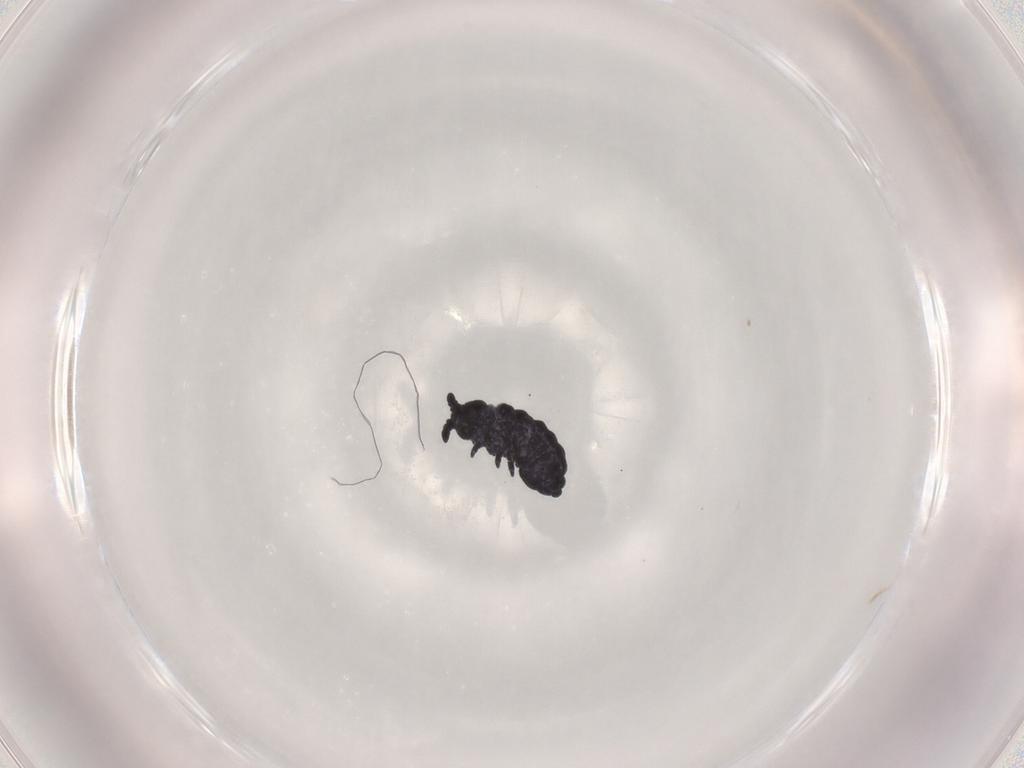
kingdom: Animalia
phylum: Arthropoda
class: Collembola
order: Poduromorpha
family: Neanuridae
